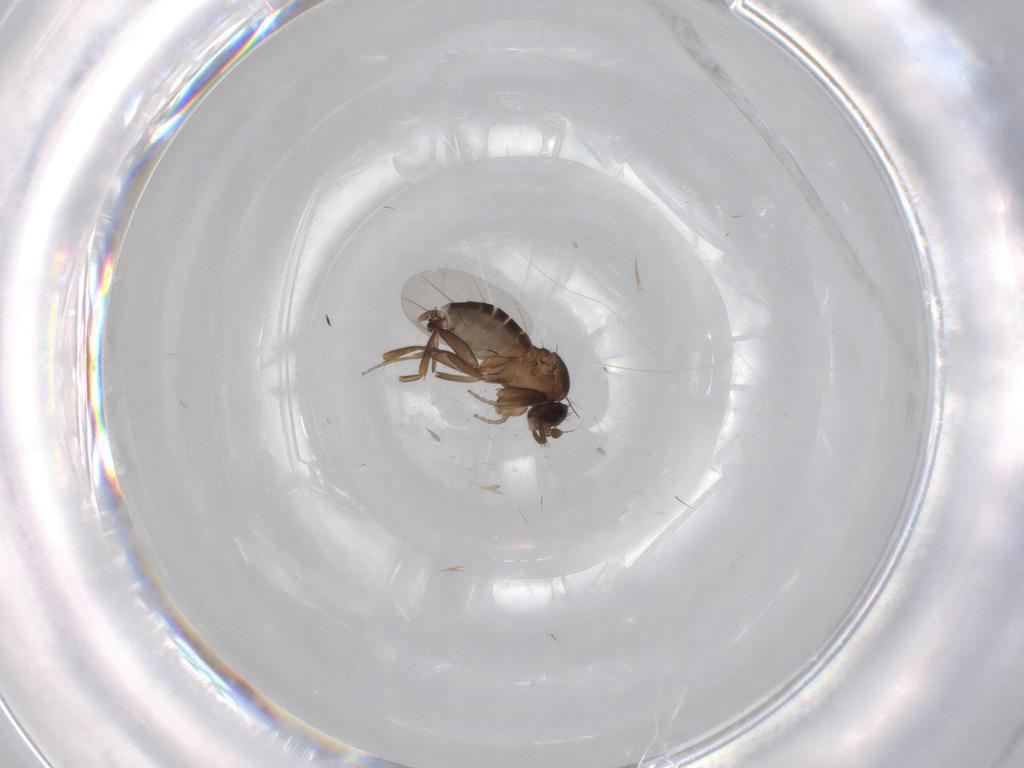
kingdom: Animalia
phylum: Arthropoda
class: Insecta
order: Diptera
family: Phoridae
